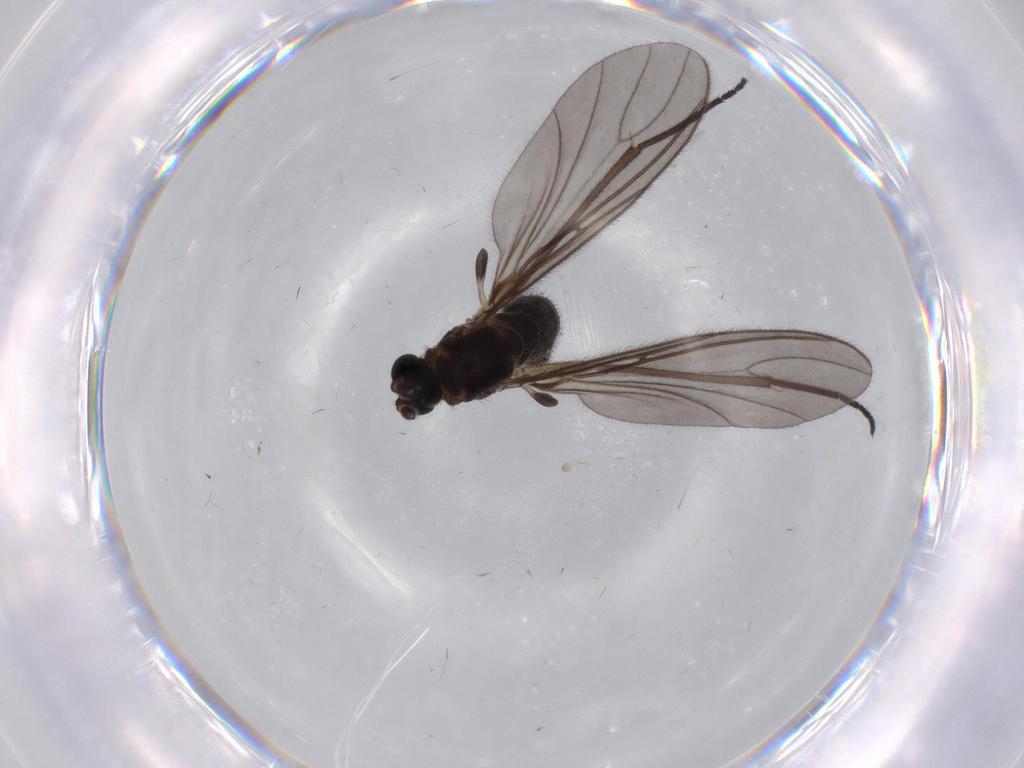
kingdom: Animalia
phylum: Arthropoda
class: Insecta
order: Diptera
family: Sciaridae
